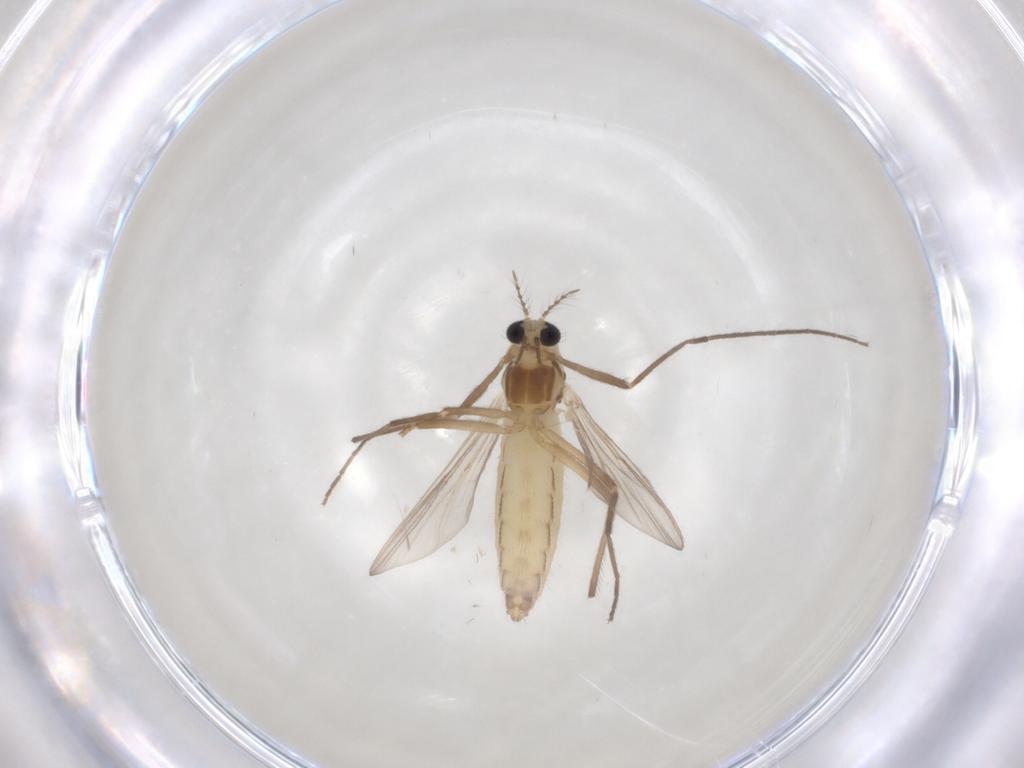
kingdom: Animalia
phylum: Arthropoda
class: Insecta
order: Diptera
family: Chironomidae
